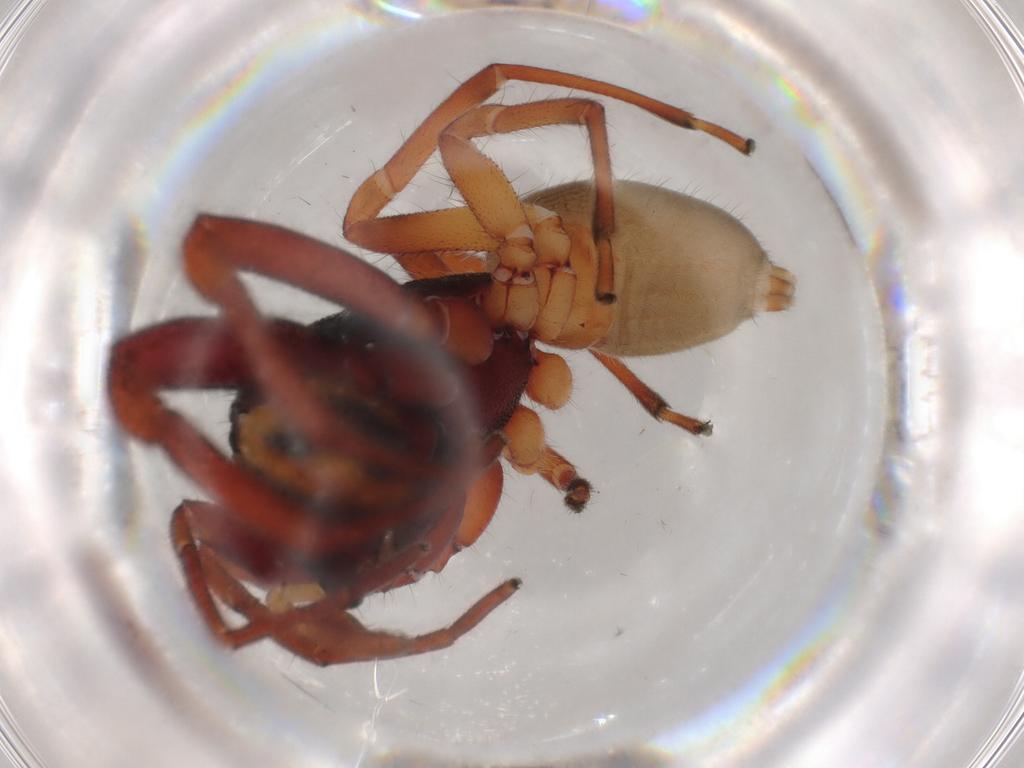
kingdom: Animalia
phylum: Arthropoda
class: Arachnida
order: Araneae
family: Trachelidae
